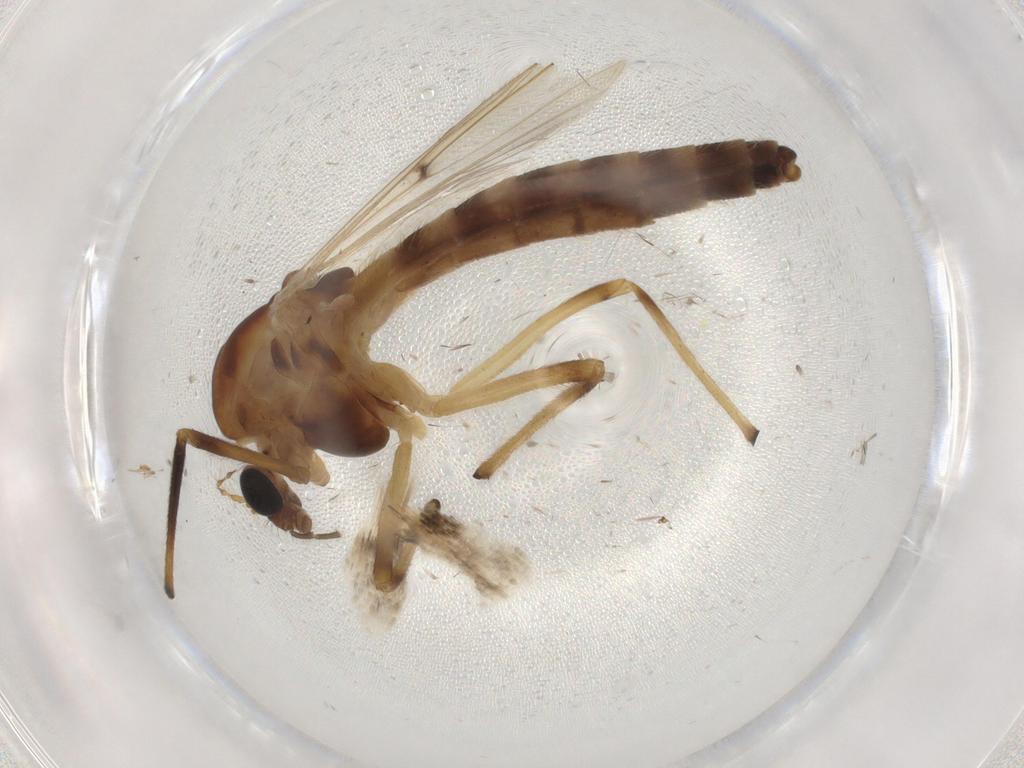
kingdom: Animalia
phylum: Arthropoda
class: Insecta
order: Diptera
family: Chironomidae
